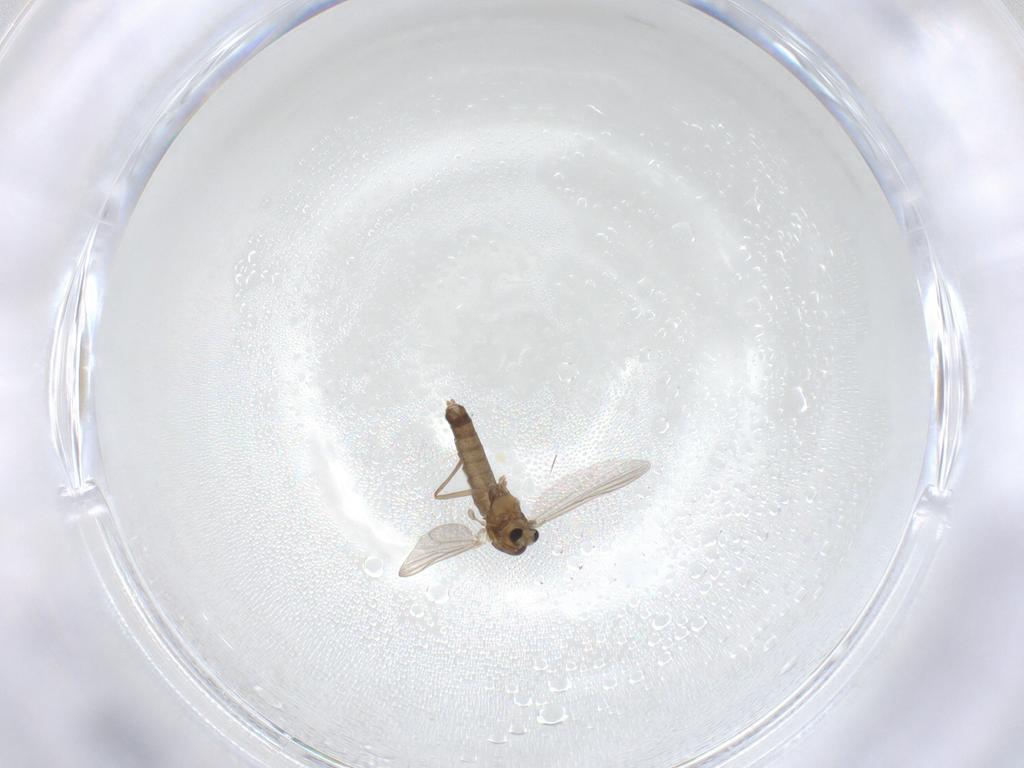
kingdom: Animalia
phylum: Arthropoda
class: Insecta
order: Diptera
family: Chironomidae
